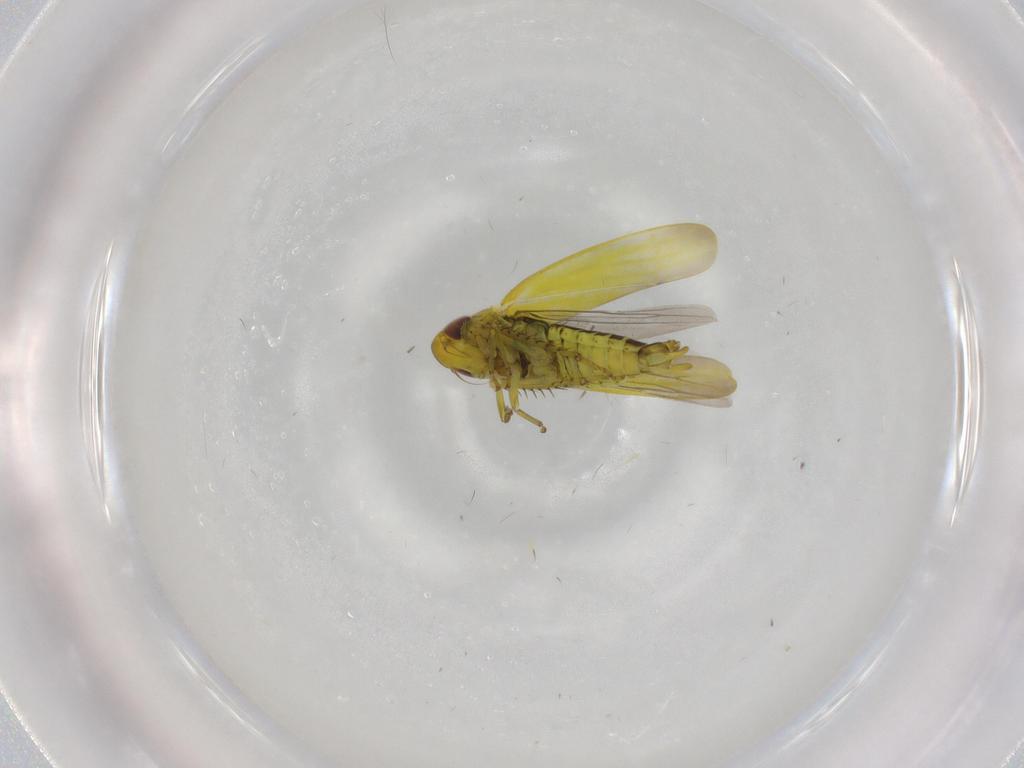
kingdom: Animalia
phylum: Arthropoda
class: Insecta
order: Hemiptera
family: Cicadellidae
